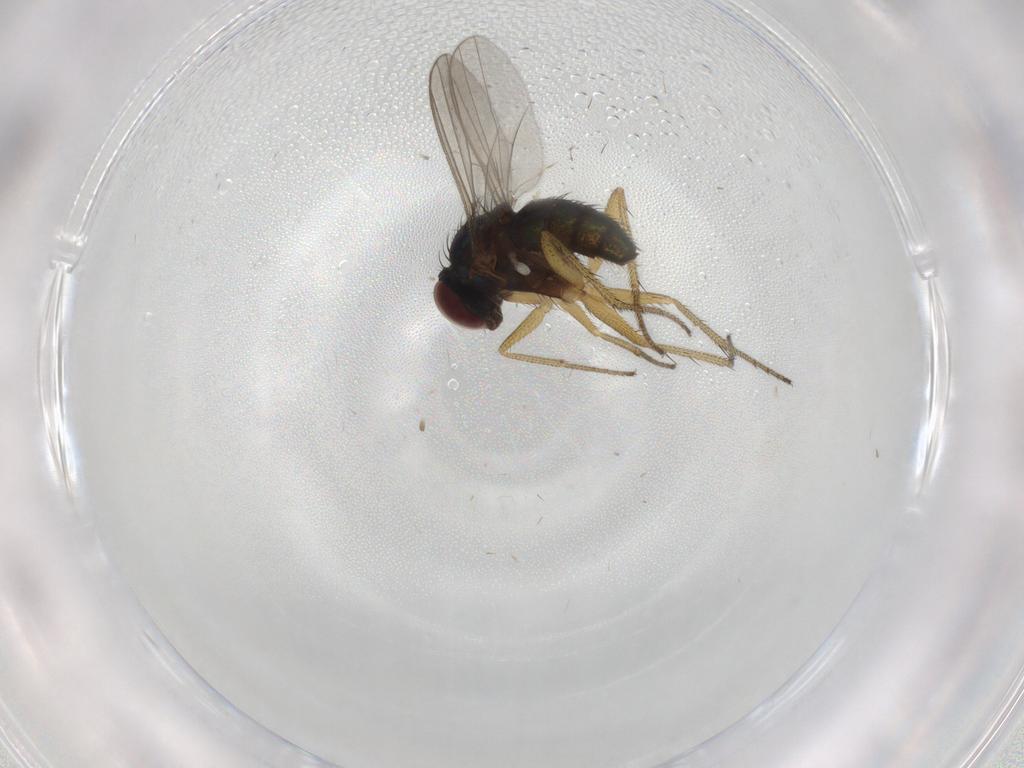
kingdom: Animalia
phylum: Arthropoda
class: Insecta
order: Diptera
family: Dolichopodidae
